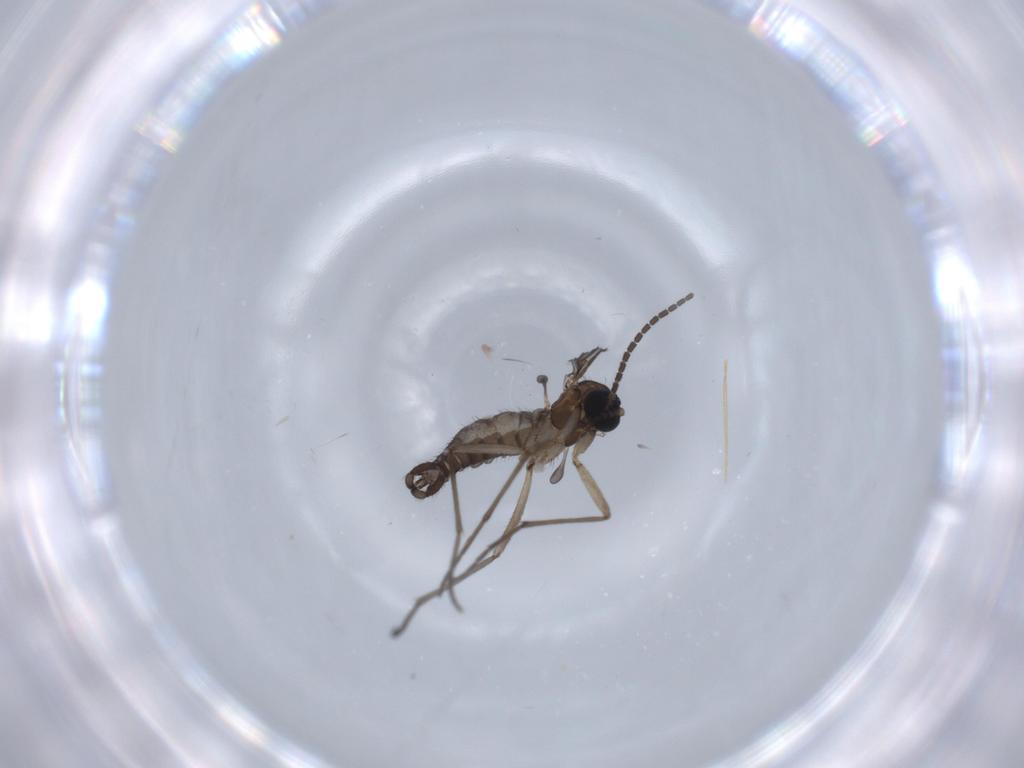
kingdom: Animalia
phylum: Arthropoda
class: Insecta
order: Diptera
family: Sciaridae
